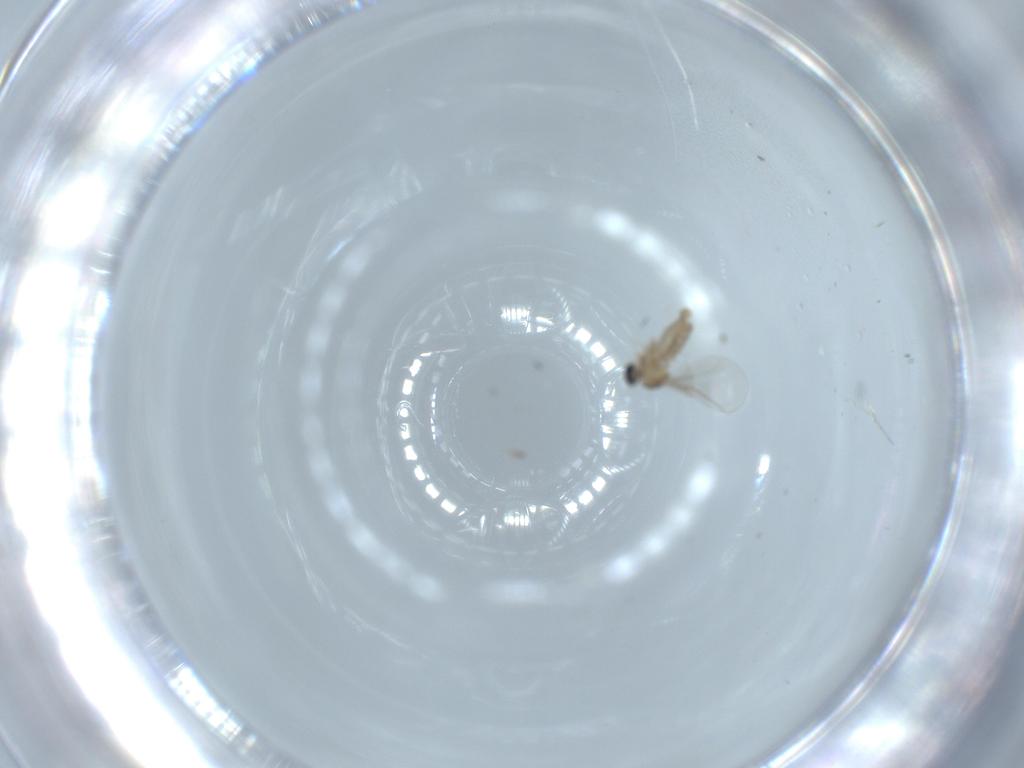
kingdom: Animalia
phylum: Arthropoda
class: Insecta
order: Diptera
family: Cecidomyiidae
